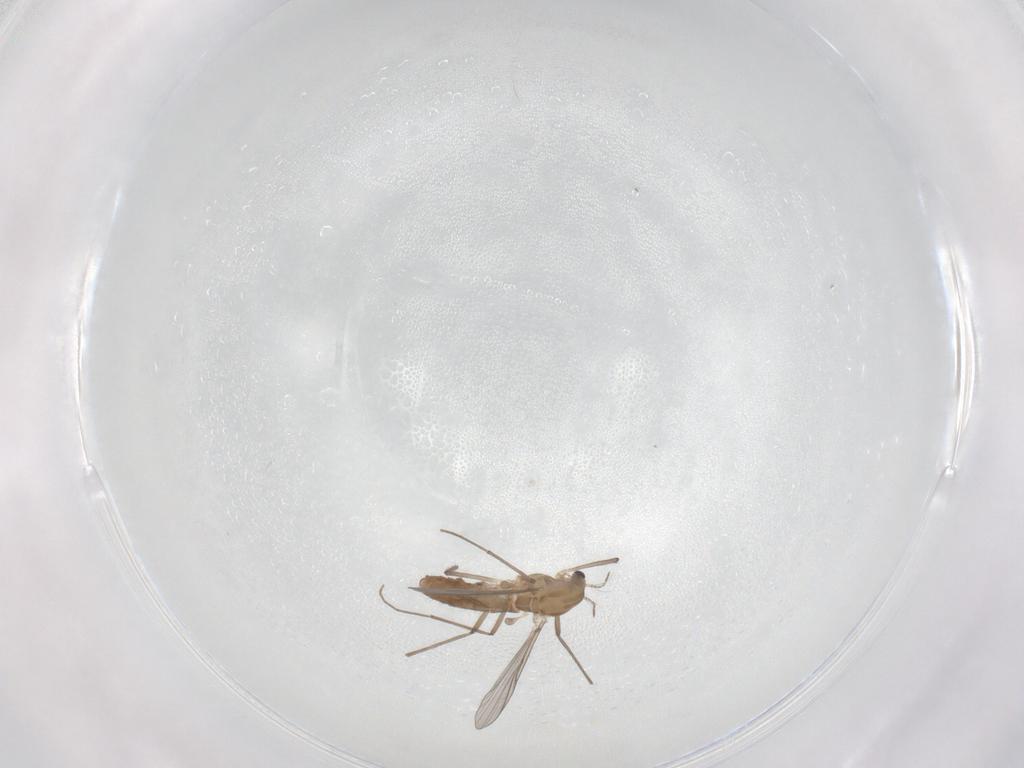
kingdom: Animalia
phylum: Arthropoda
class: Insecta
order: Diptera
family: Chironomidae
